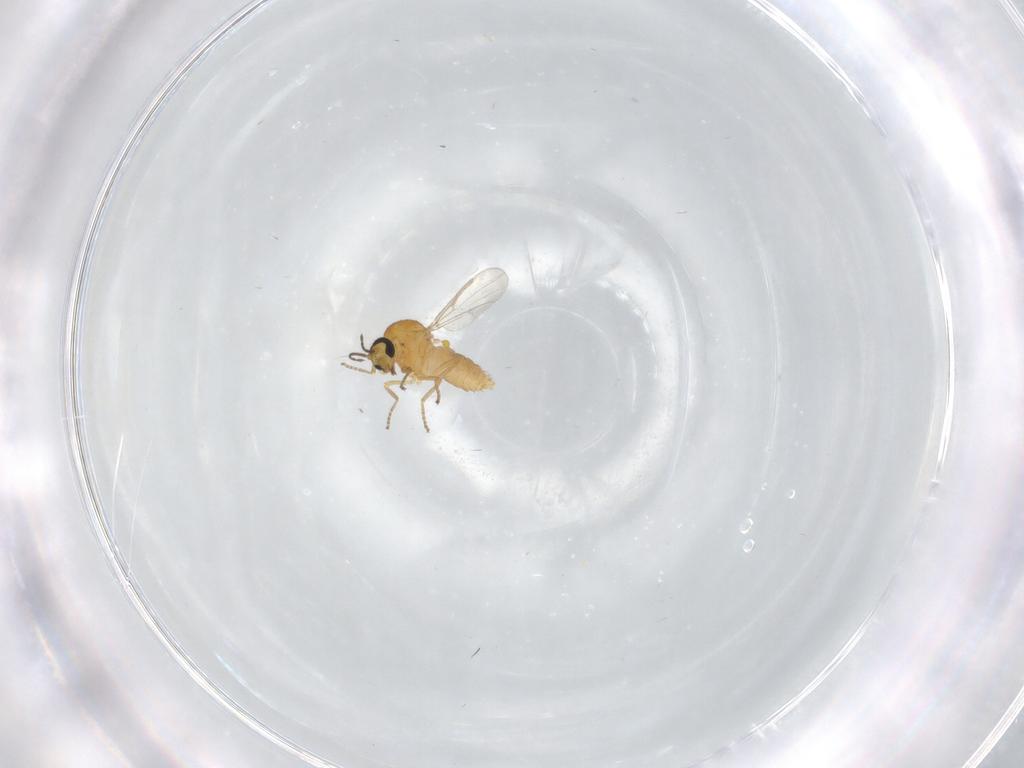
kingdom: Animalia
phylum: Arthropoda
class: Insecta
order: Diptera
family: Ceratopogonidae
